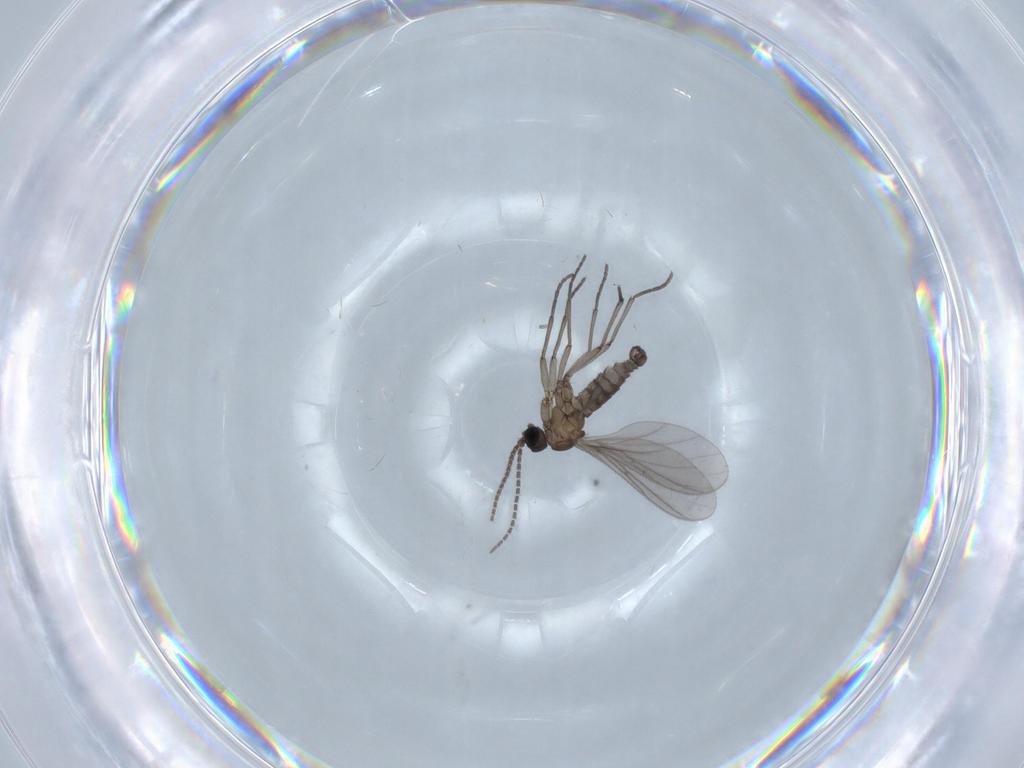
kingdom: Animalia
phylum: Arthropoda
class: Insecta
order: Diptera
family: Sciaridae
